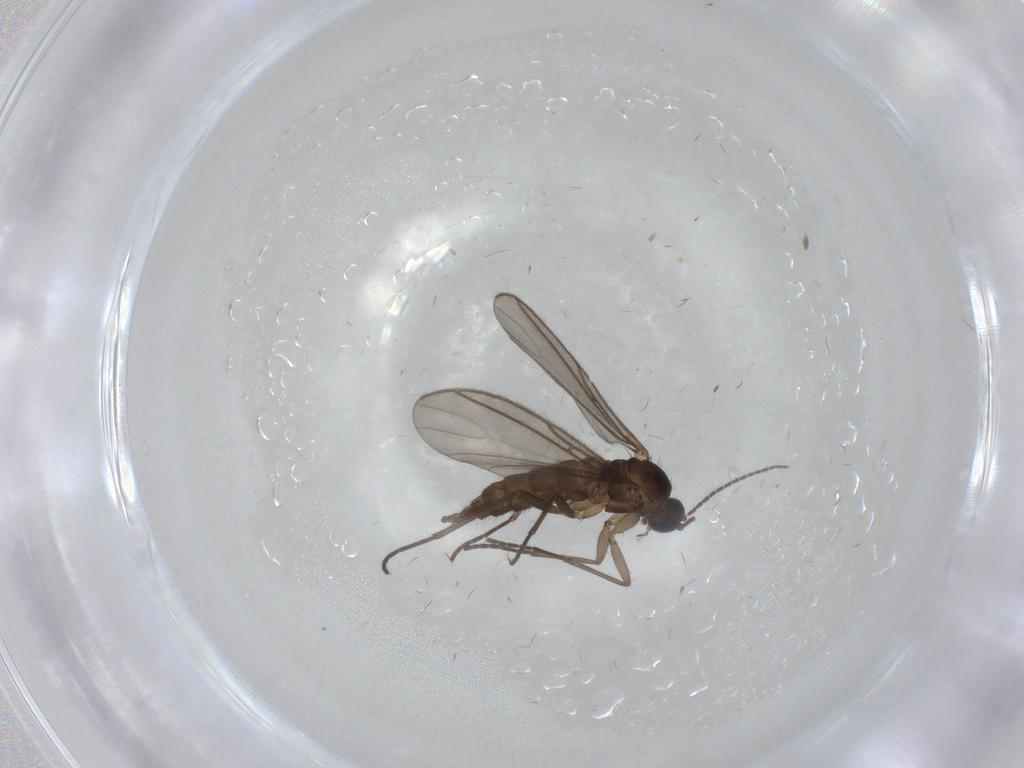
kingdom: Animalia
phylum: Arthropoda
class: Insecta
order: Diptera
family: Sciaridae
